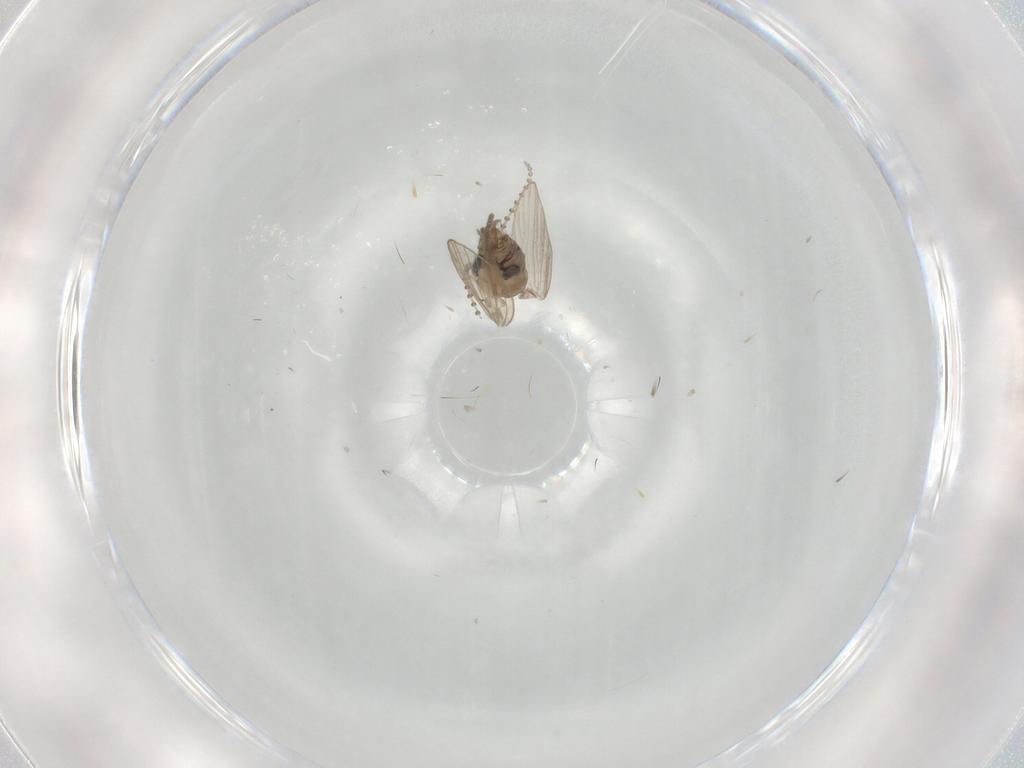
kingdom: Animalia
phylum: Arthropoda
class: Insecta
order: Diptera
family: Psychodidae
